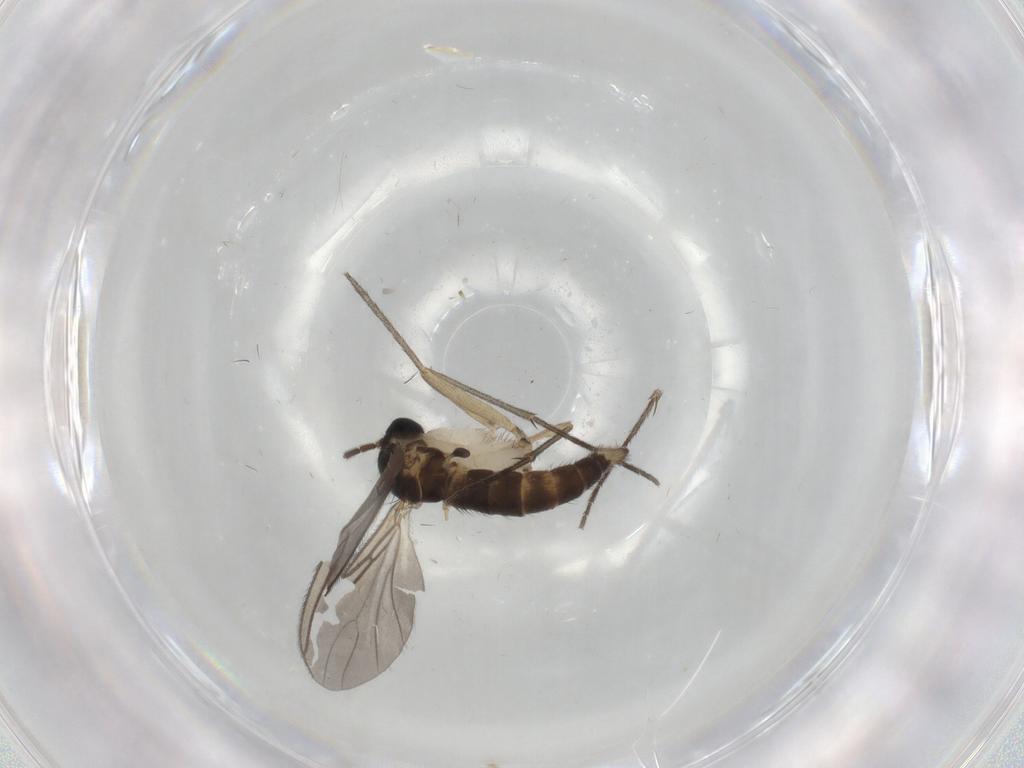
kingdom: Animalia
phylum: Arthropoda
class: Insecta
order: Diptera
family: Sciaridae
